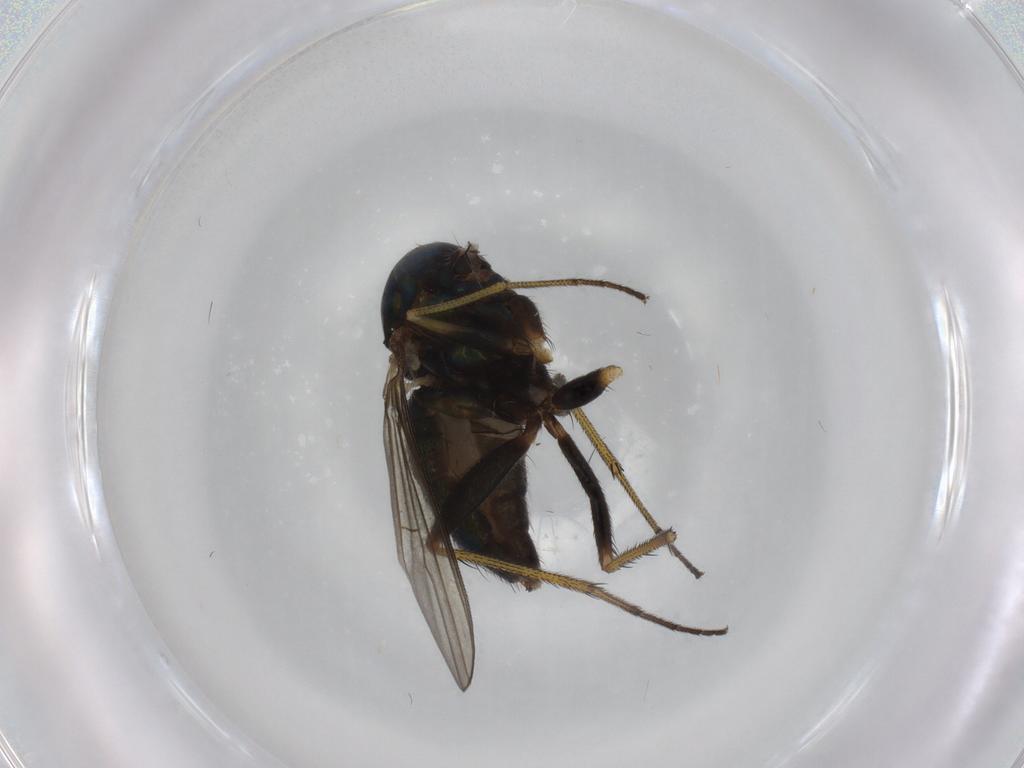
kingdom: Animalia
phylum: Arthropoda
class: Insecta
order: Diptera
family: Dolichopodidae
